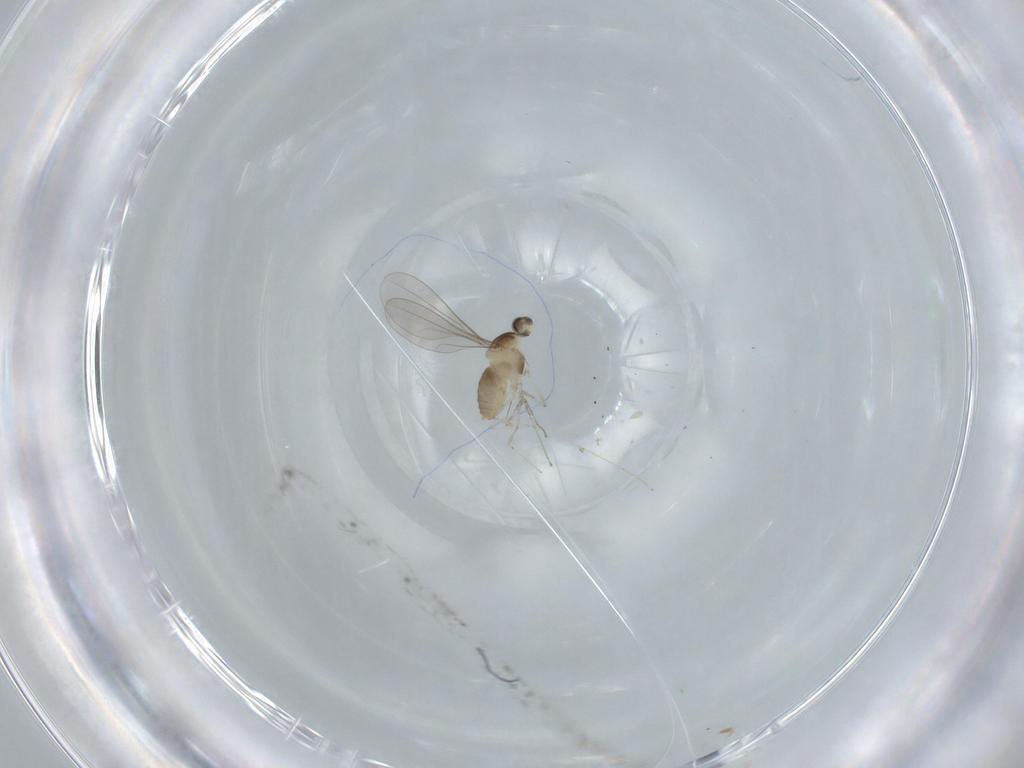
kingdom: Animalia
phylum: Arthropoda
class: Insecta
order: Diptera
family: Cecidomyiidae
